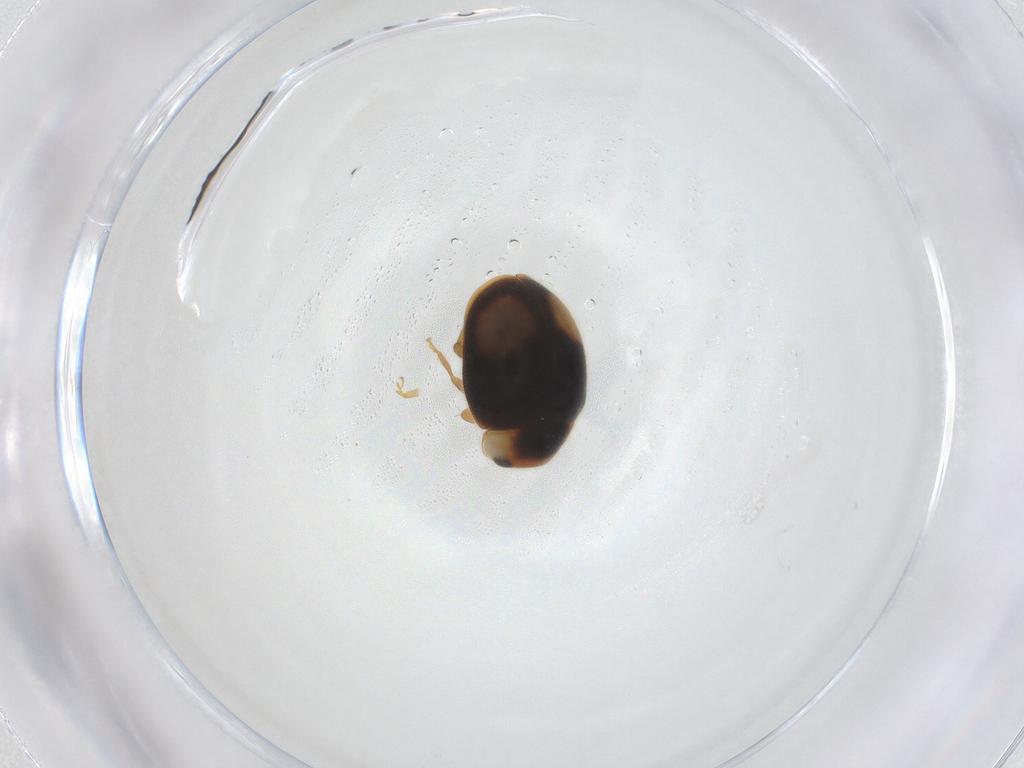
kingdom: Animalia
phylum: Arthropoda
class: Insecta
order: Coleoptera
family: Coccinellidae
